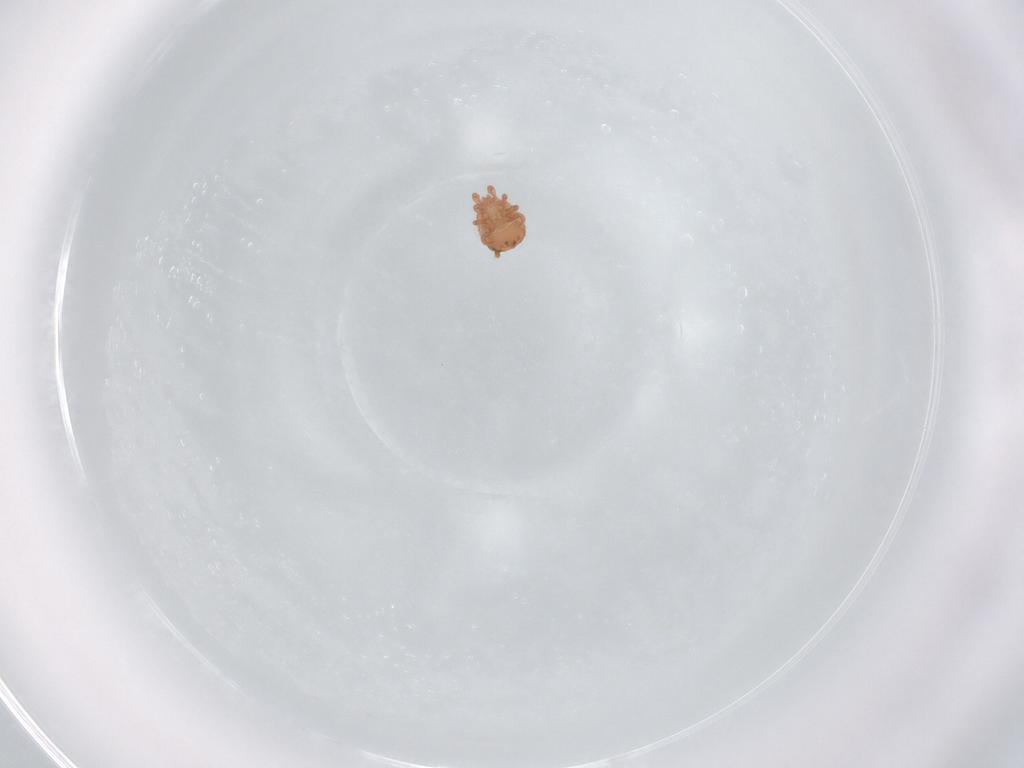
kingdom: Animalia
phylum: Arthropoda
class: Arachnida
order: Mesostigmata
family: Zerconidae
